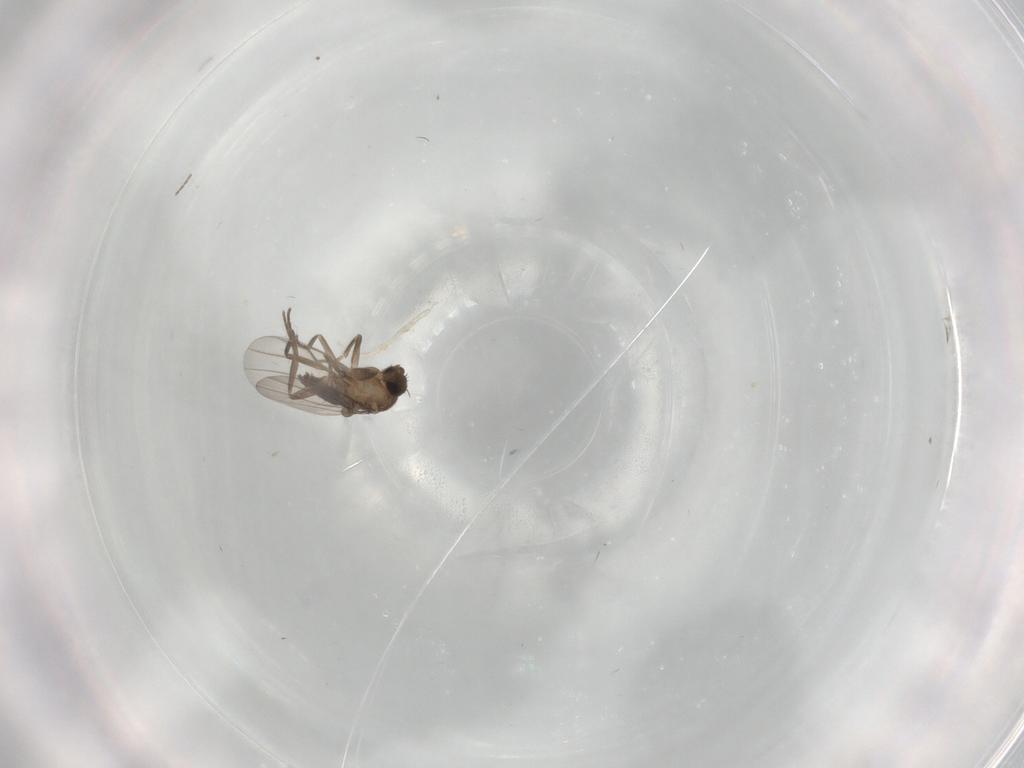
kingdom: Animalia
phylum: Arthropoda
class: Insecta
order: Diptera
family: Chironomidae
